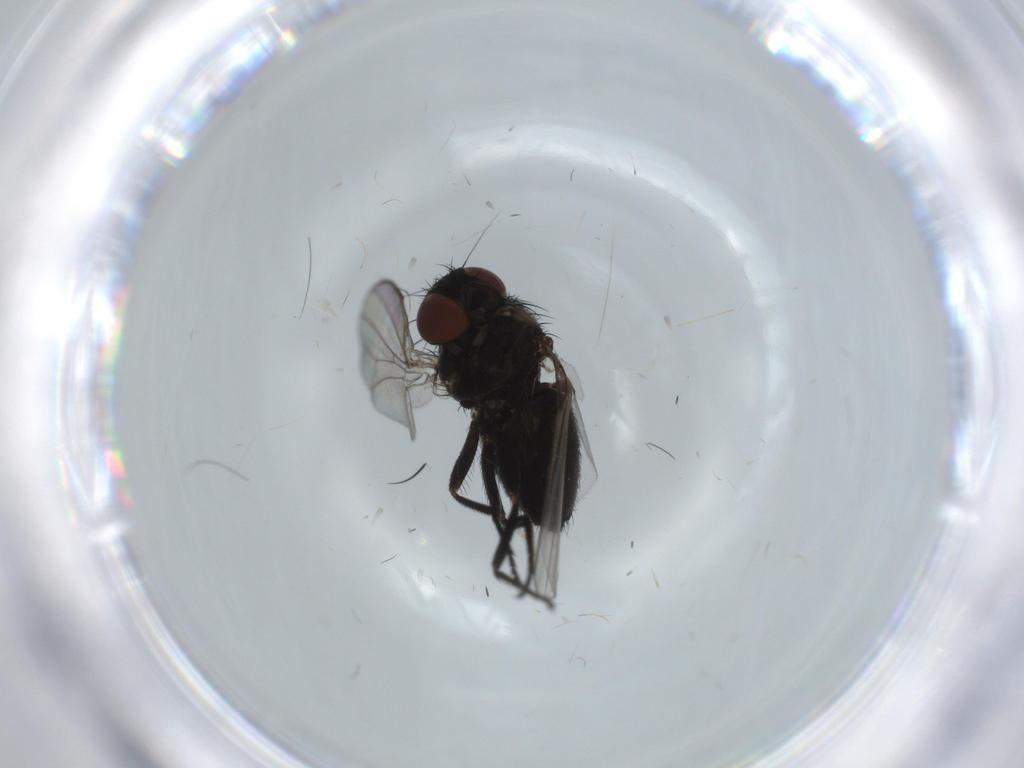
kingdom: Animalia
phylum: Arthropoda
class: Insecta
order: Diptera
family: Milichiidae
